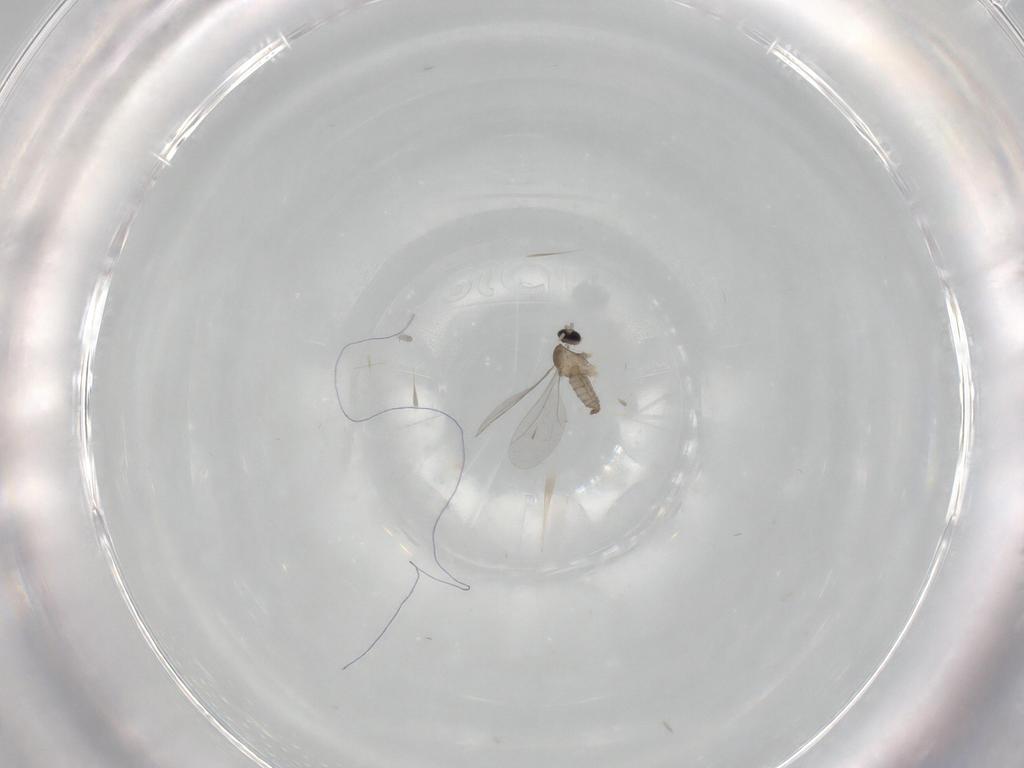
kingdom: Animalia
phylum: Arthropoda
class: Insecta
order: Diptera
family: Cecidomyiidae
